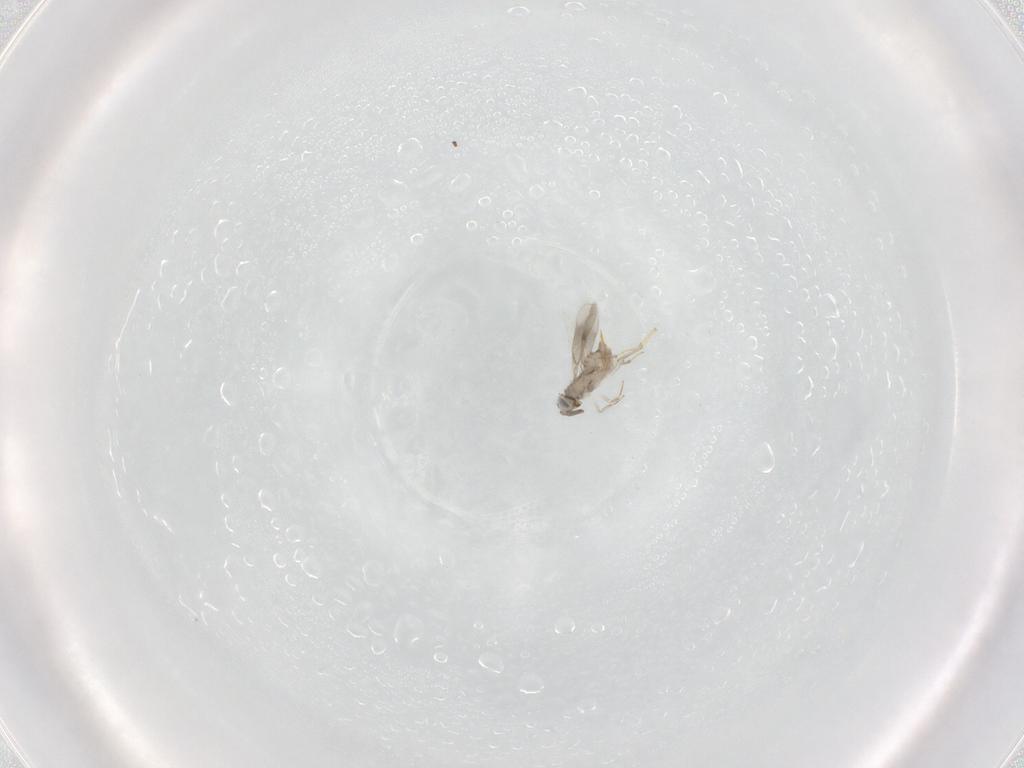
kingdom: Animalia
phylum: Arthropoda
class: Insecta
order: Hymenoptera
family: Aphelinidae
